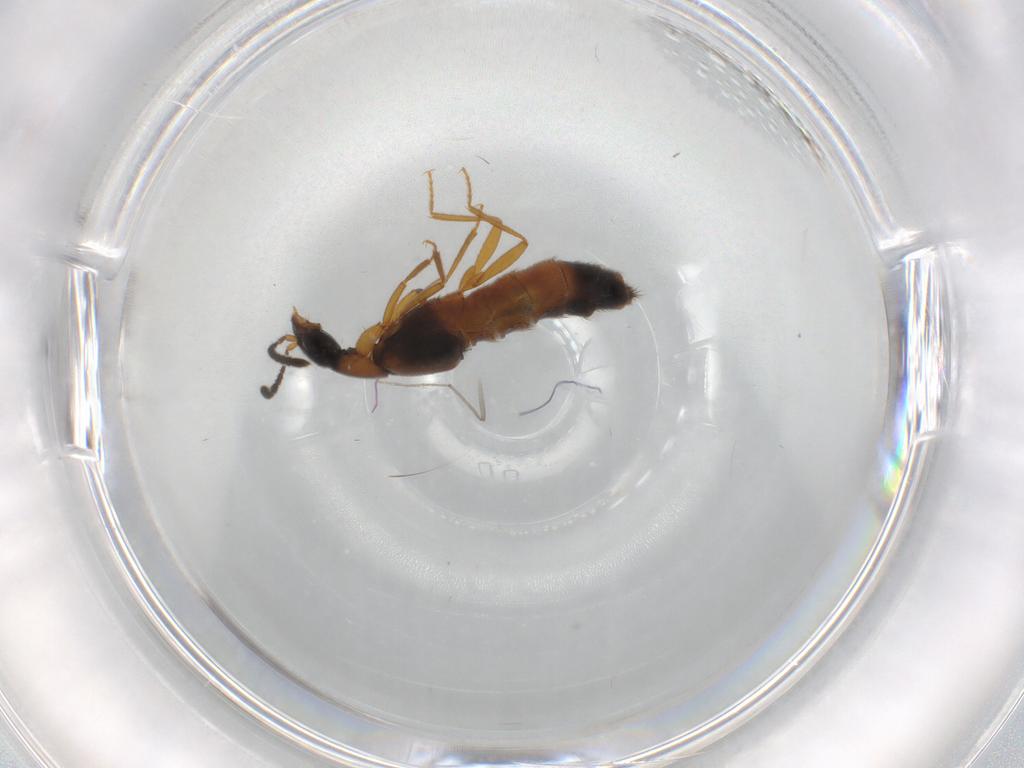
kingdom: Animalia
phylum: Arthropoda
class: Insecta
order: Coleoptera
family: Staphylinidae
